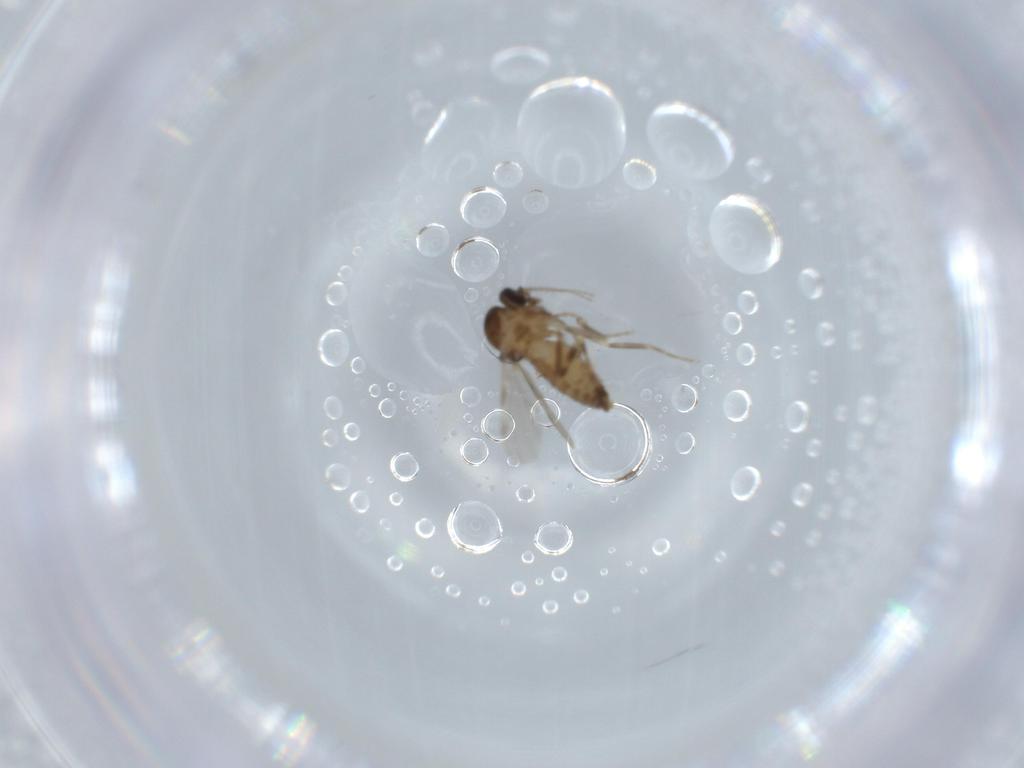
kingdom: Animalia
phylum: Arthropoda
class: Insecta
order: Diptera
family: Ceratopogonidae
